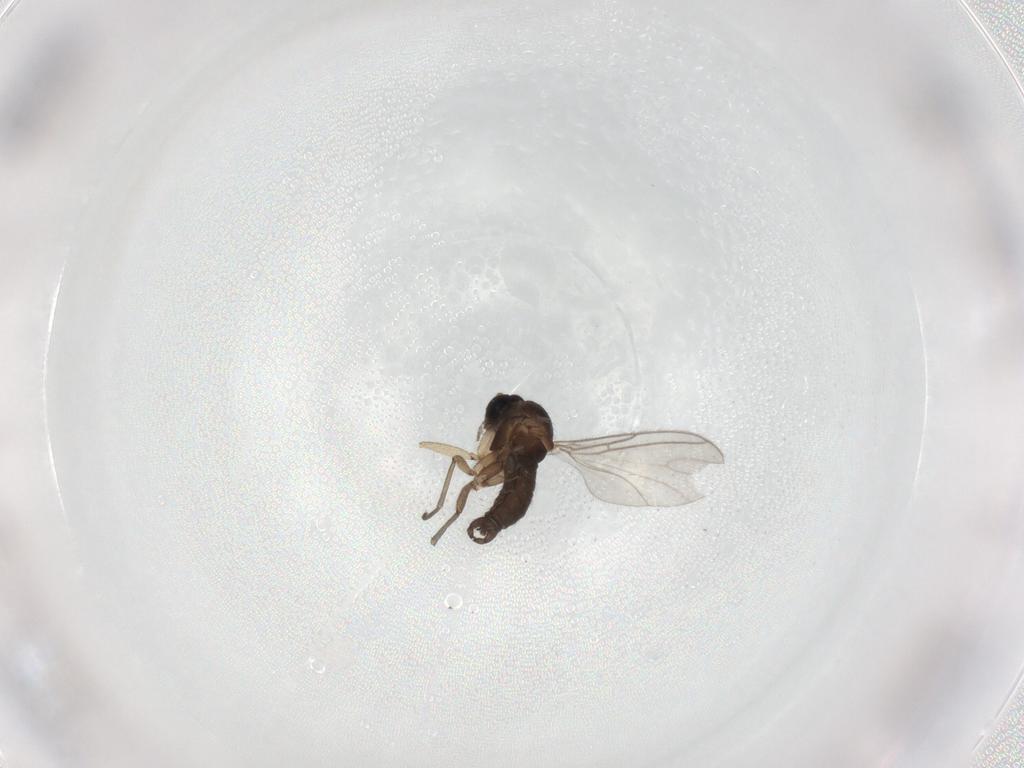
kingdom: Animalia
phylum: Arthropoda
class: Insecta
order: Diptera
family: Sciaridae
